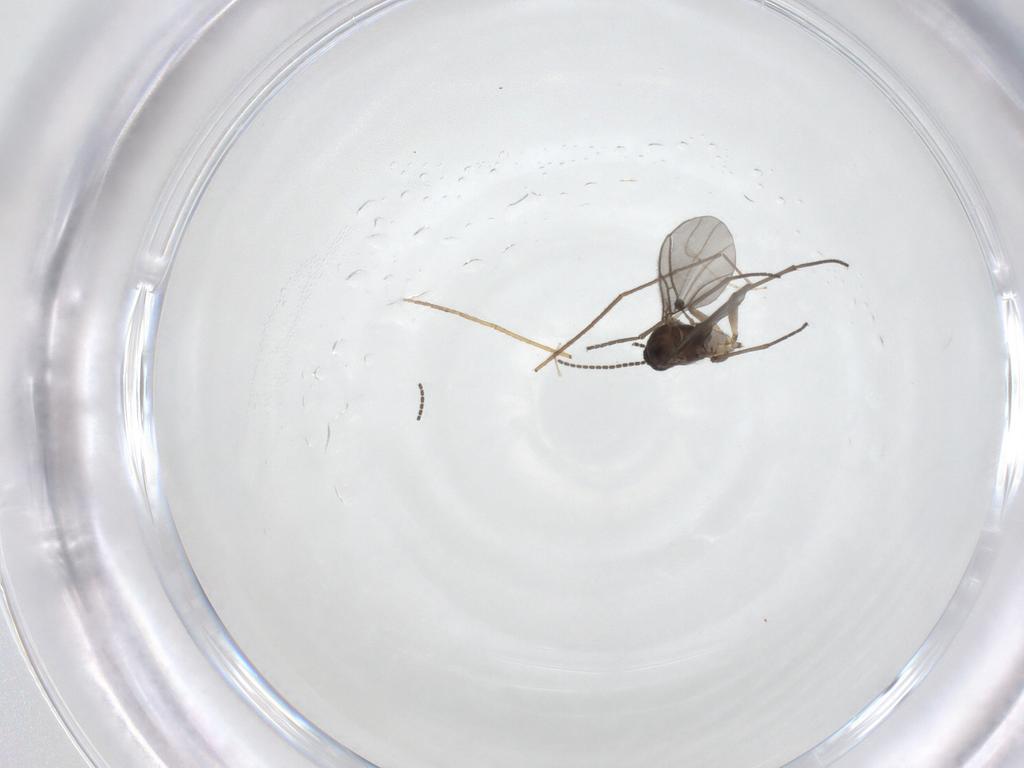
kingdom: Animalia
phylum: Arthropoda
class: Insecta
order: Diptera
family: Sciaridae
